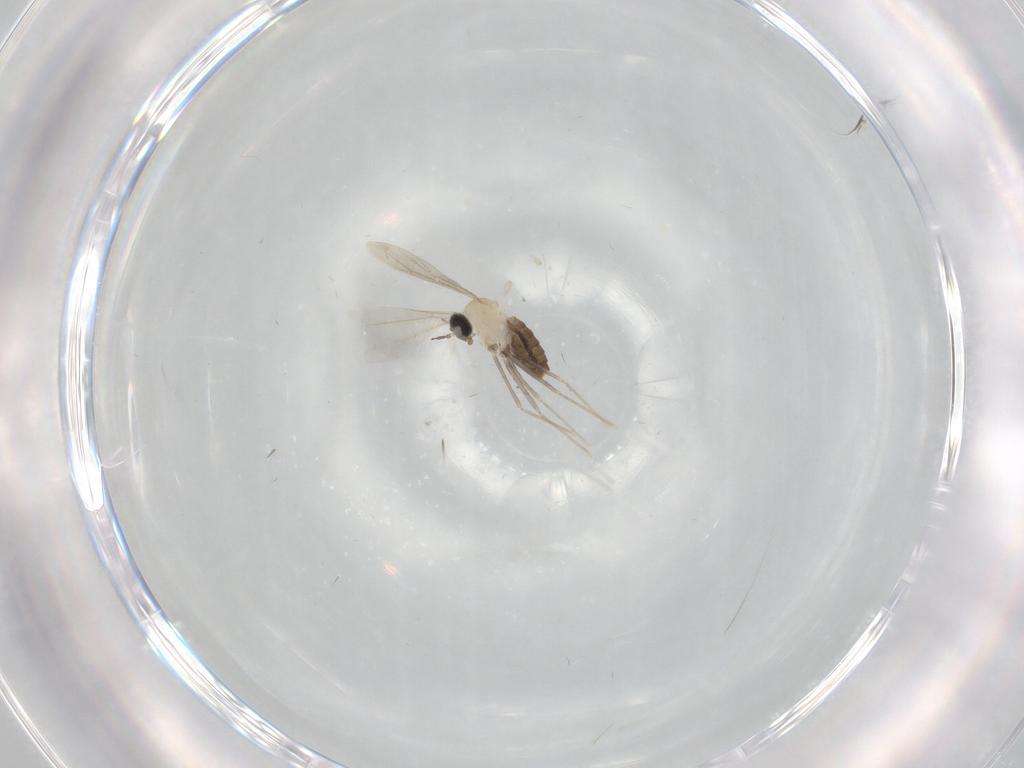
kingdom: Animalia
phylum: Arthropoda
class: Insecta
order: Diptera
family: Cecidomyiidae
